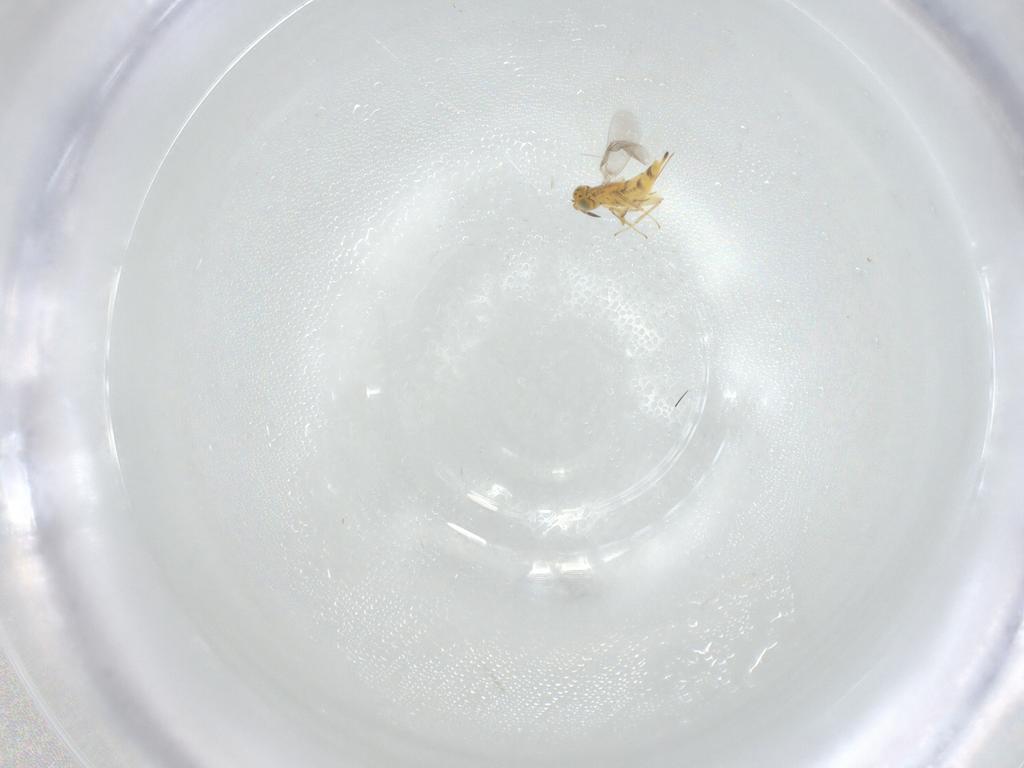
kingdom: Animalia
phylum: Arthropoda
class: Insecta
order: Hymenoptera
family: Aphelinidae
